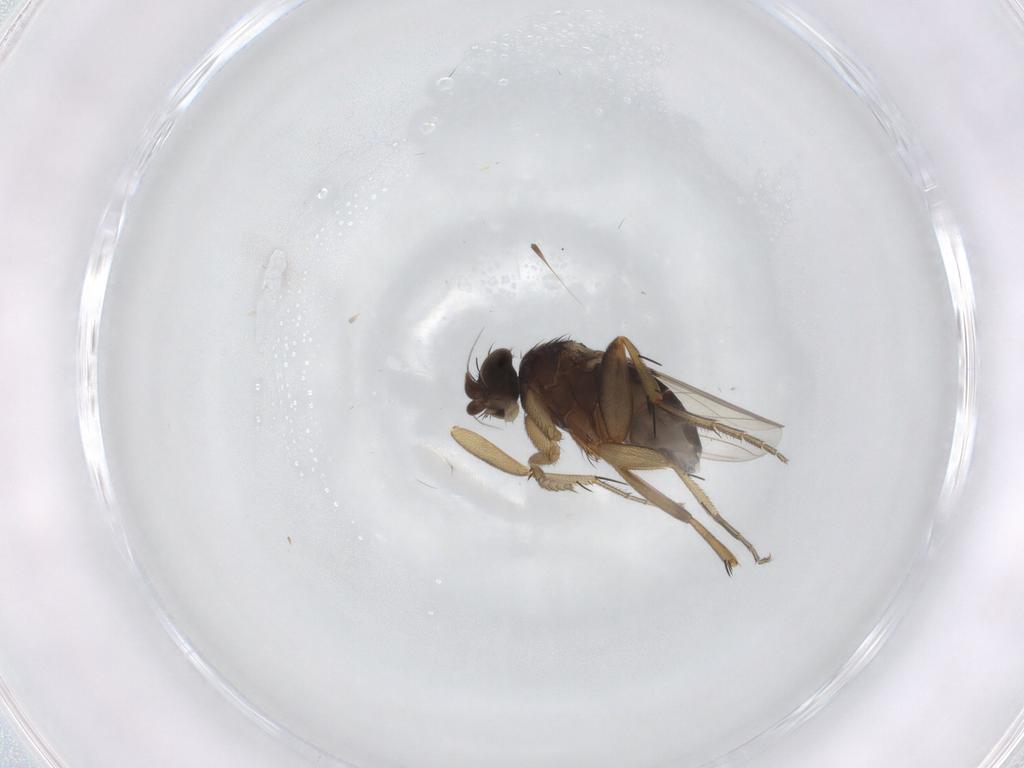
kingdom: Animalia
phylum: Arthropoda
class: Insecta
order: Diptera
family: Phoridae
